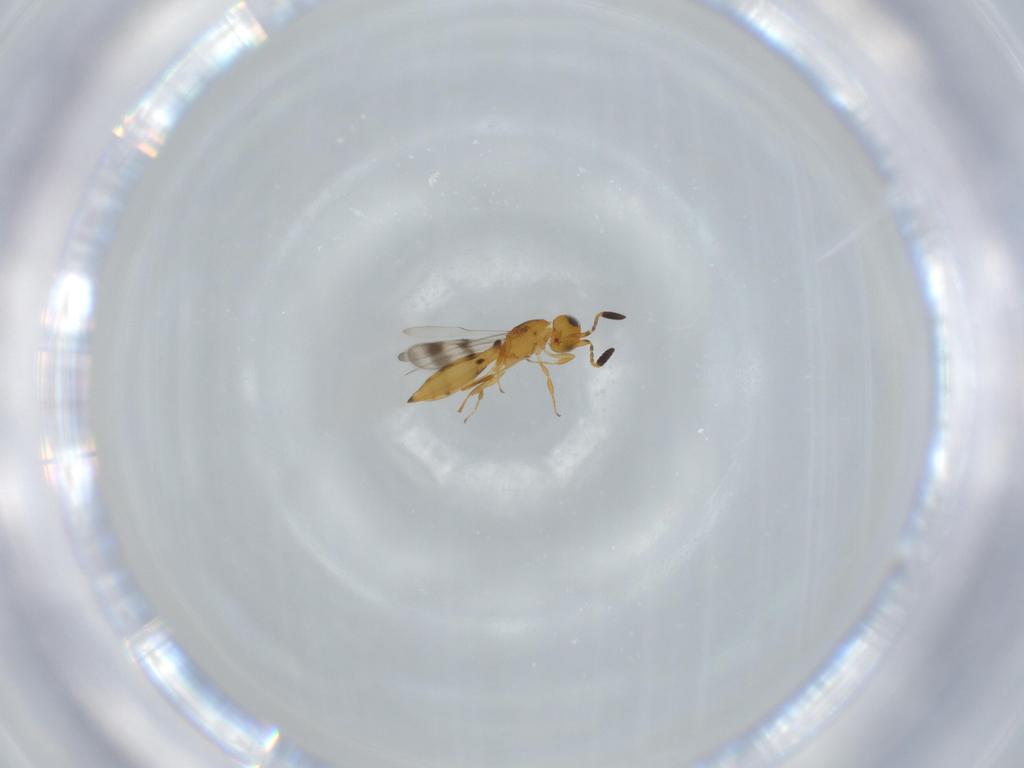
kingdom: Animalia
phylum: Arthropoda
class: Insecta
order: Hymenoptera
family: Scelionidae
